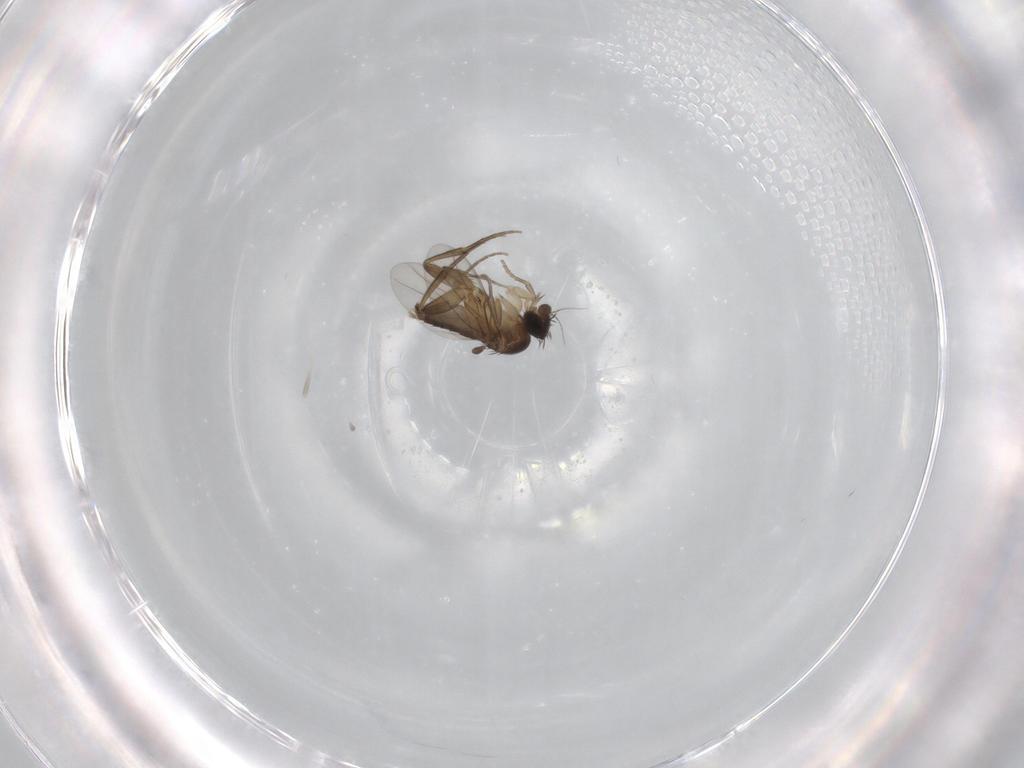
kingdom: Animalia
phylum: Arthropoda
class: Insecta
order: Diptera
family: Phoridae
